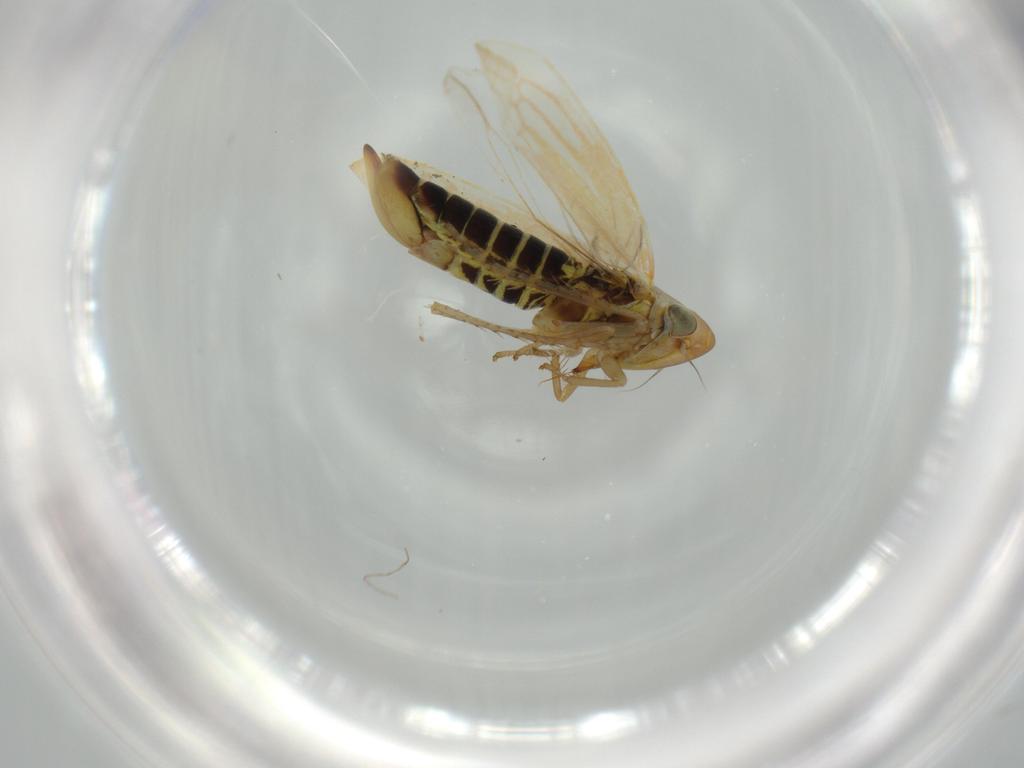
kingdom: Animalia
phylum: Arthropoda
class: Insecta
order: Hemiptera
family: Cicadellidae
